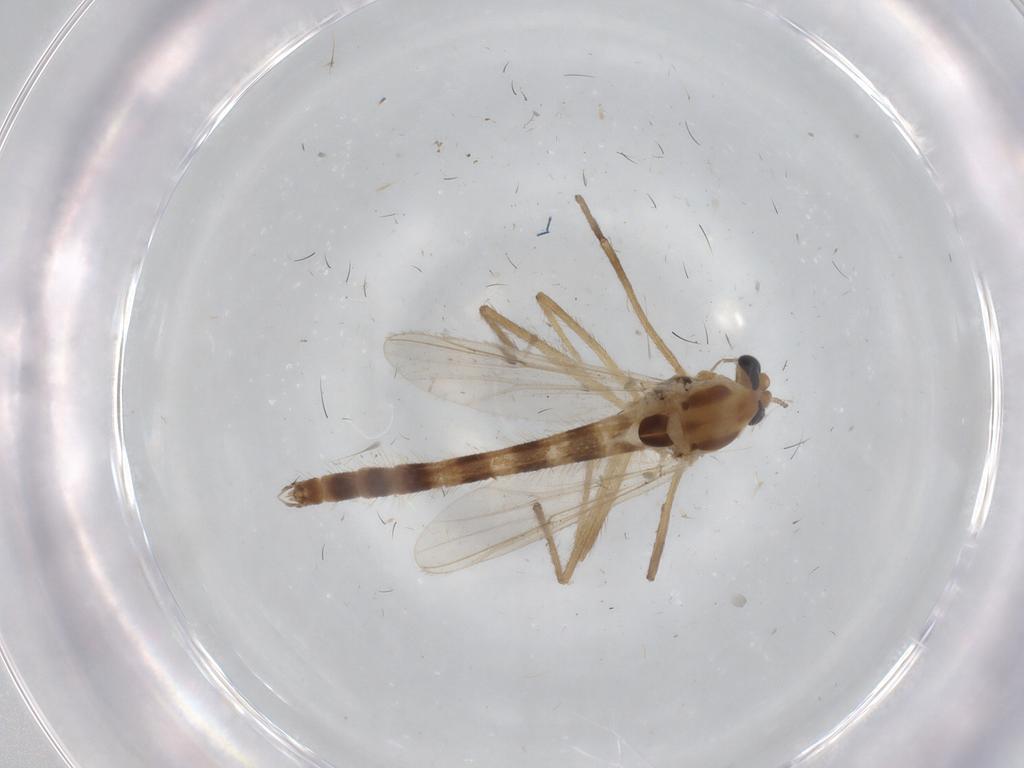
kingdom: Animalia
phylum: Arthropoda
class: Insecta
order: Diptera
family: Chironomidae
